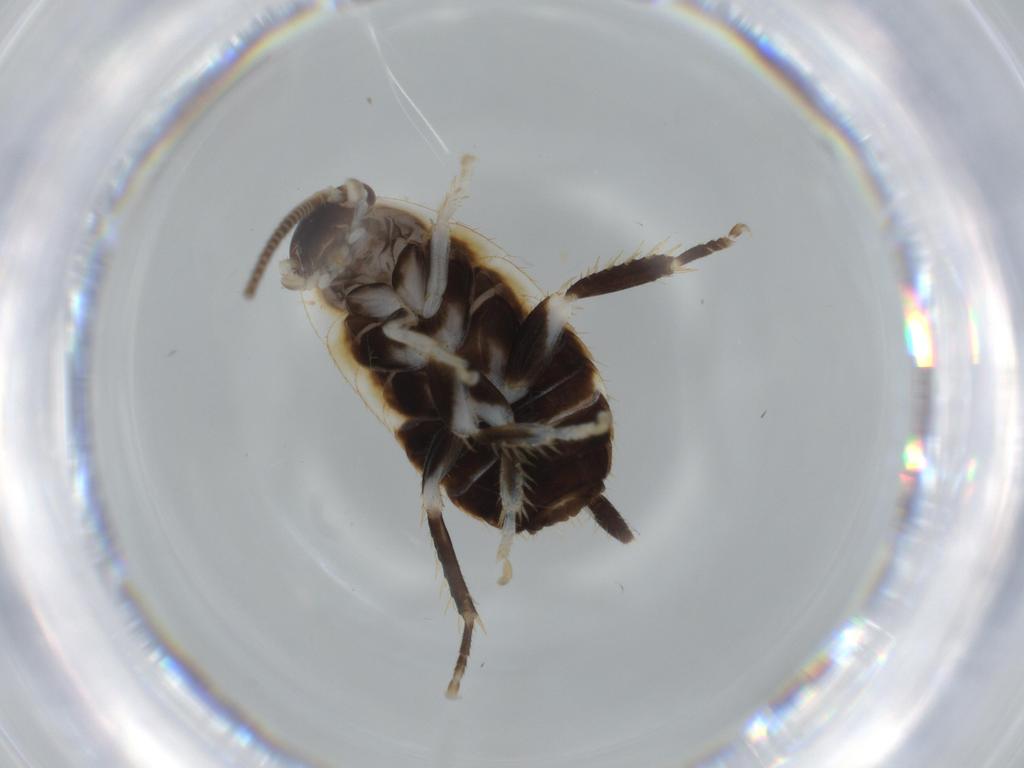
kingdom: Animalia
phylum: Arthropoda
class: Insecta
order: Blattodea
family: Ectobiidae
